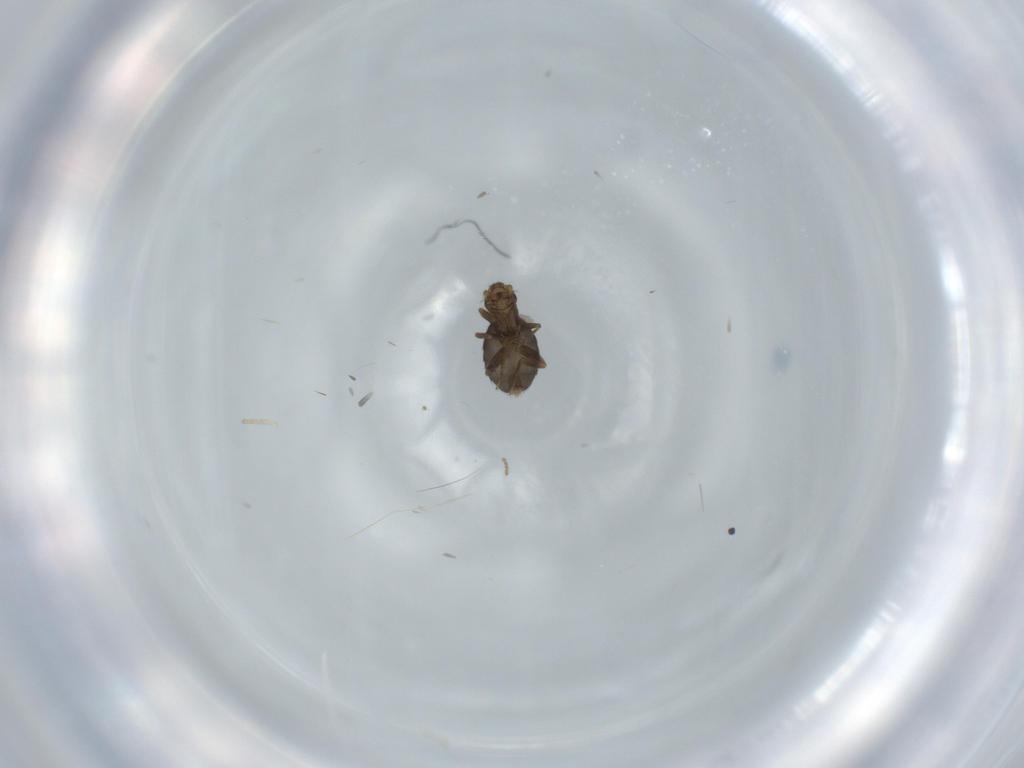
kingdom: Animalia
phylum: Arthropoda
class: Insecta
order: Diptera
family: Phoridae
